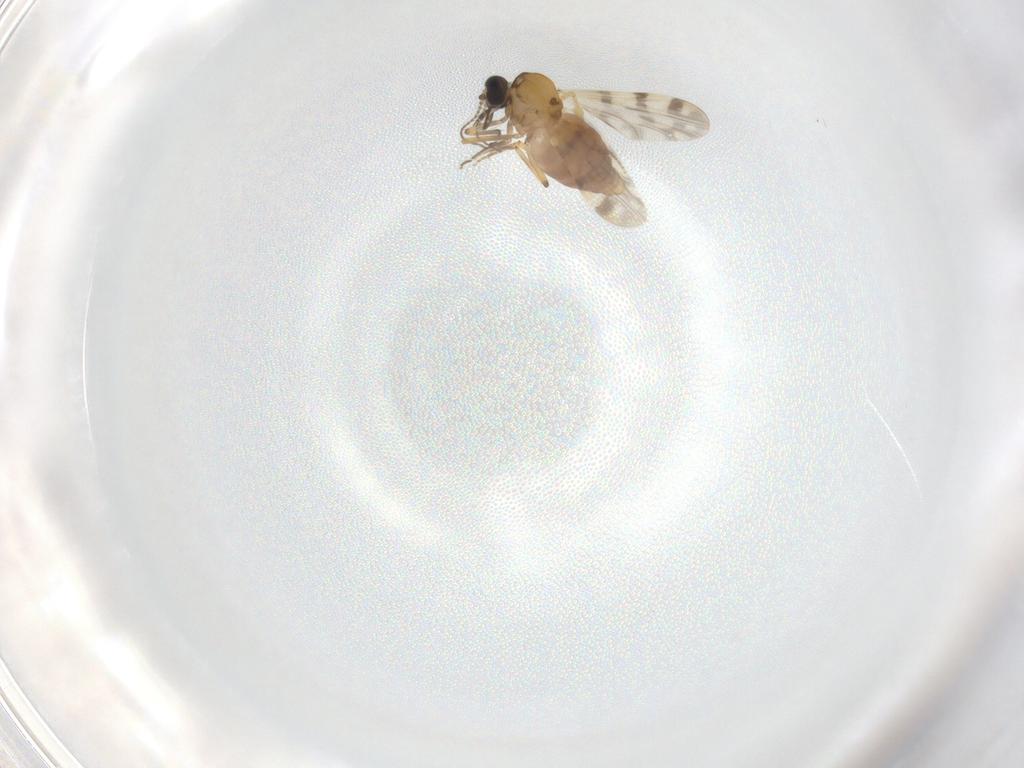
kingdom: Animalia
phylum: Arthropoda
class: Insecta
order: Diptera
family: Ceratopogonidae
